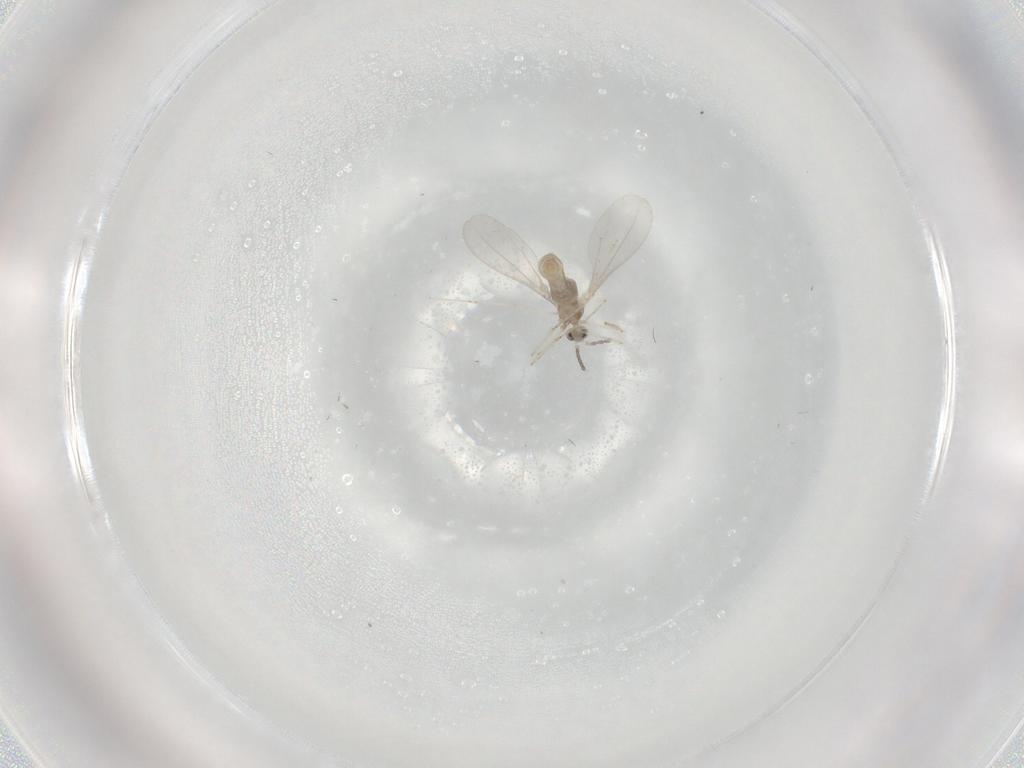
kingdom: Animalia
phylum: Arthropoda
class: Insecta
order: Diptera
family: Cecidomyiidae
